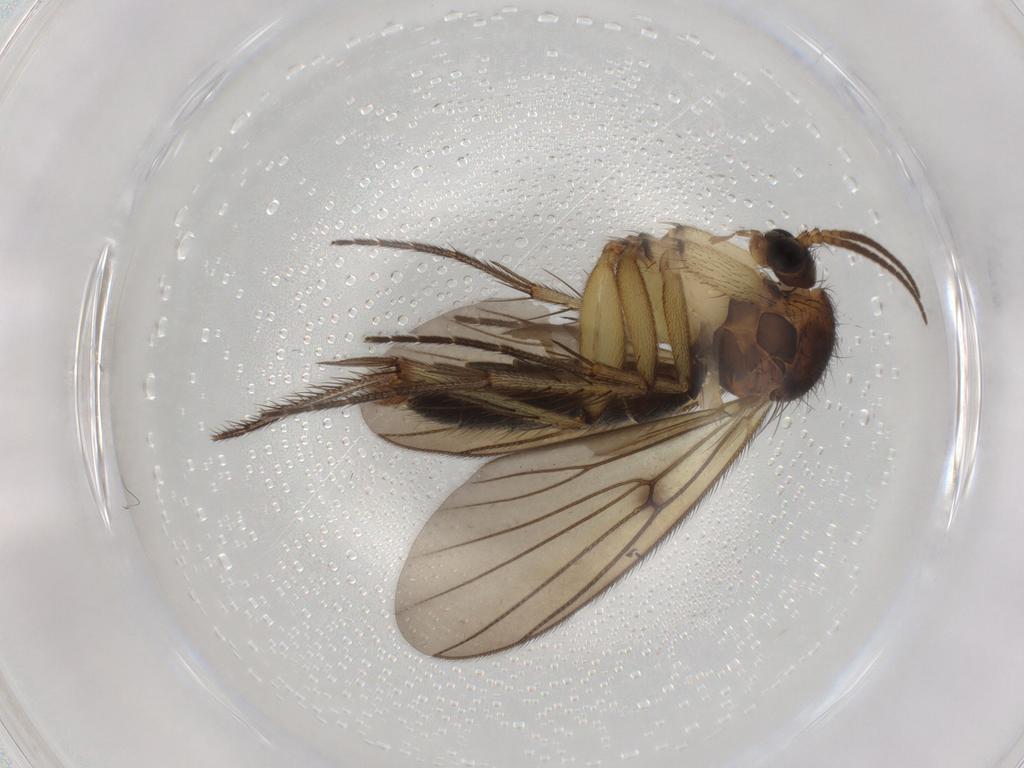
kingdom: Animalia
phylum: Arthropoda
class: Insecta
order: Diptera
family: Mycetophilidae
